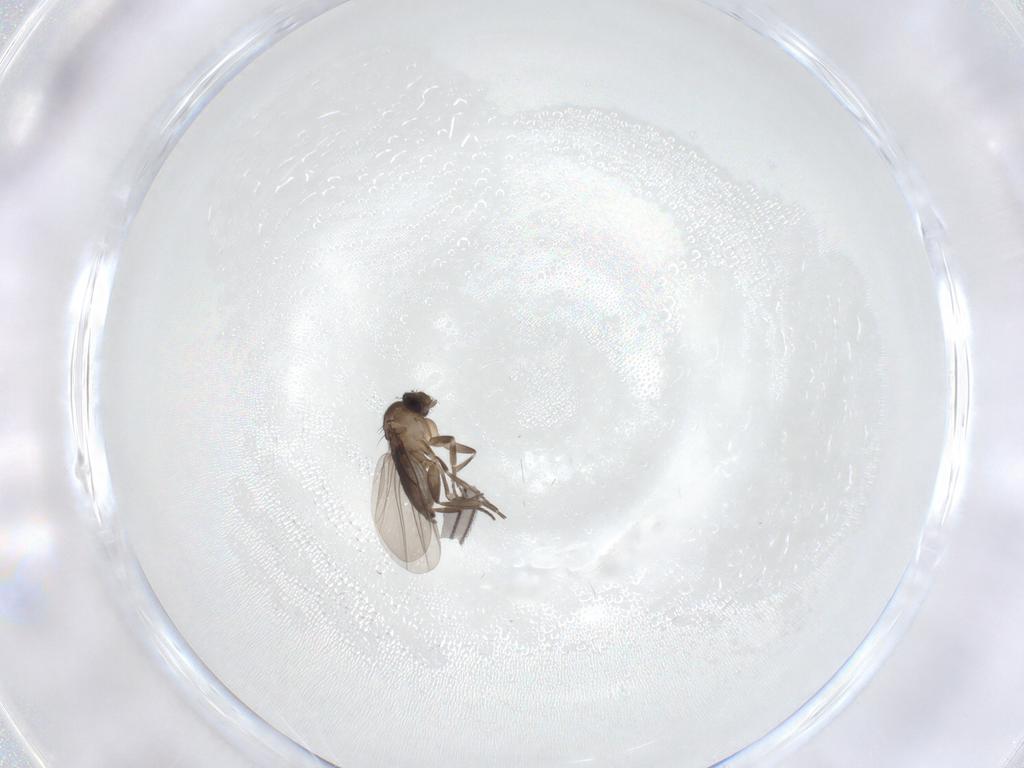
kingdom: Animalia
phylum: Arthropoda
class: Insecta
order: Diptera
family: Sciaridae
